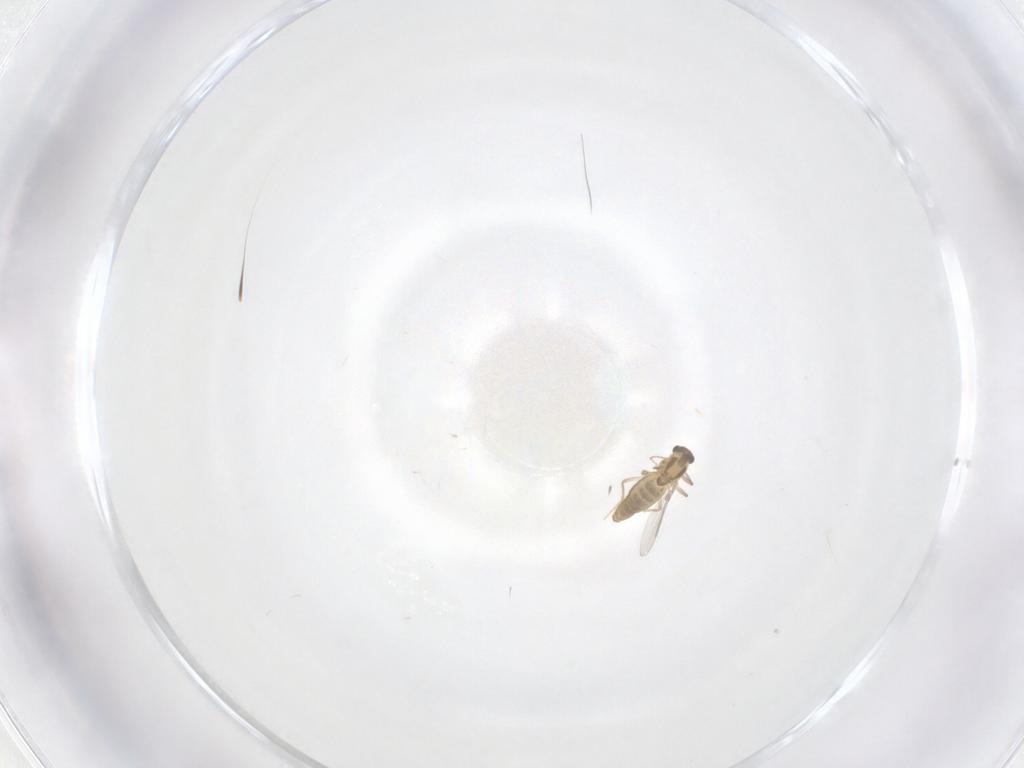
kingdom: Animalia
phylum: Arthropoda
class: Insecta
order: Diptera
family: Chironomidae
